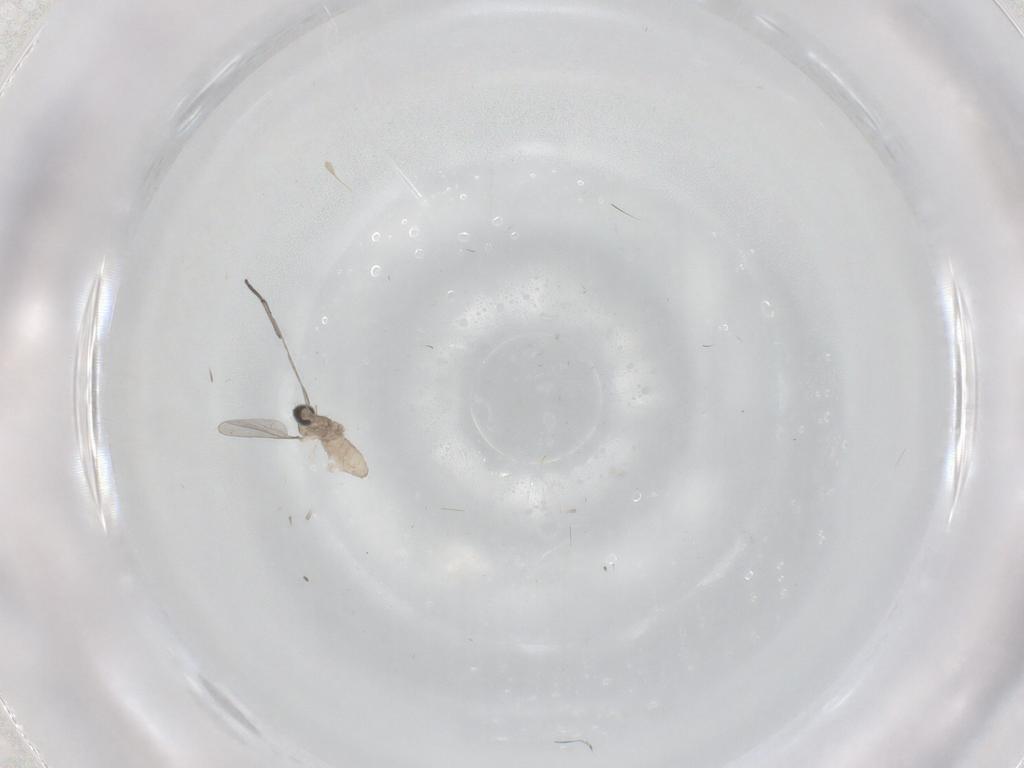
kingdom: Animalia
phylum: Arthropoda
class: Insecta
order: Diptera
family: Cecidomyiidae
